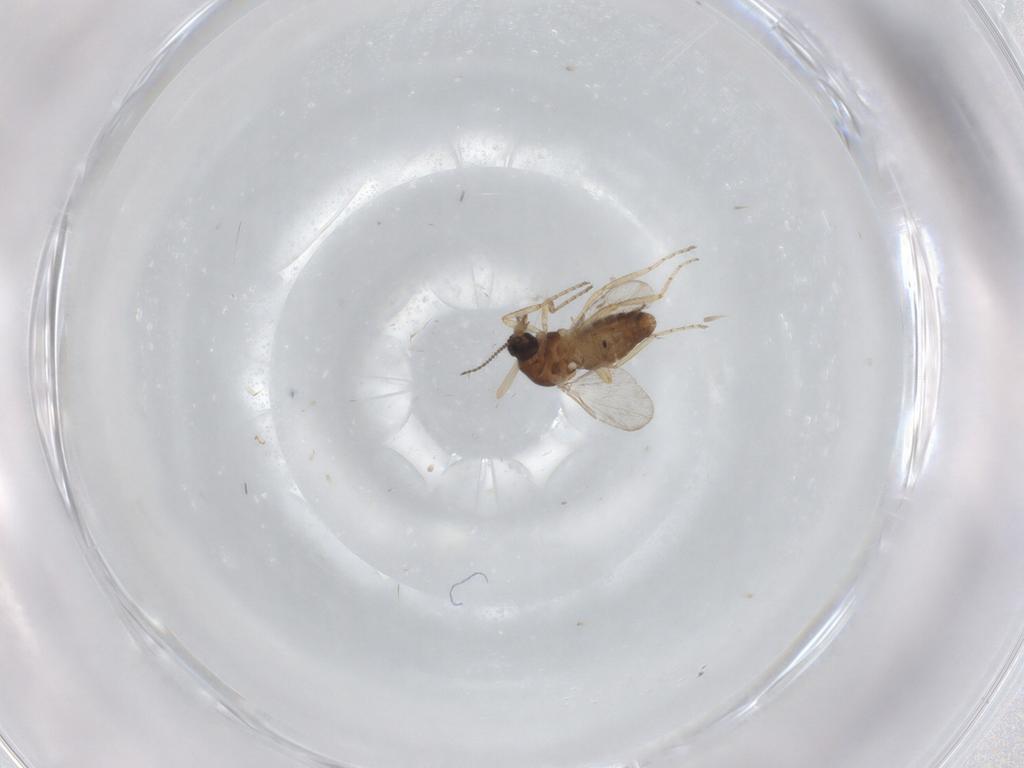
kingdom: Animalia
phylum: Arthropoda
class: Insecta
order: Diptera
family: Ceratopogonidae
